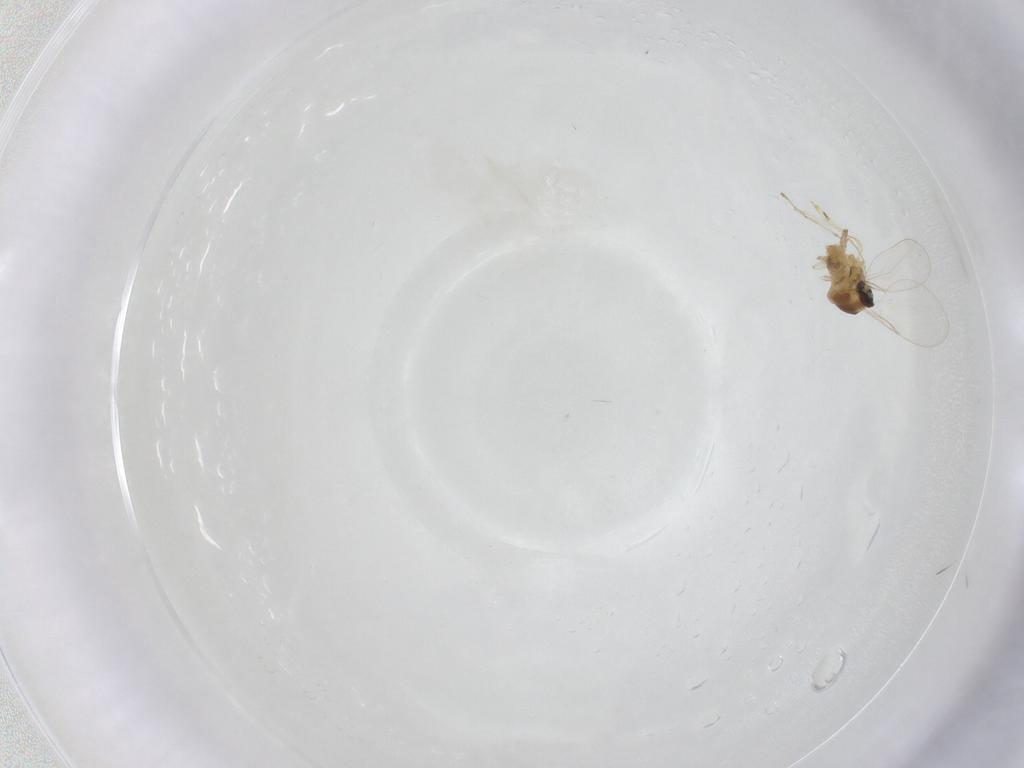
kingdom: Animalia
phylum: Arthropoda
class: Insecta
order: Diptera
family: Cecidomyiidae
